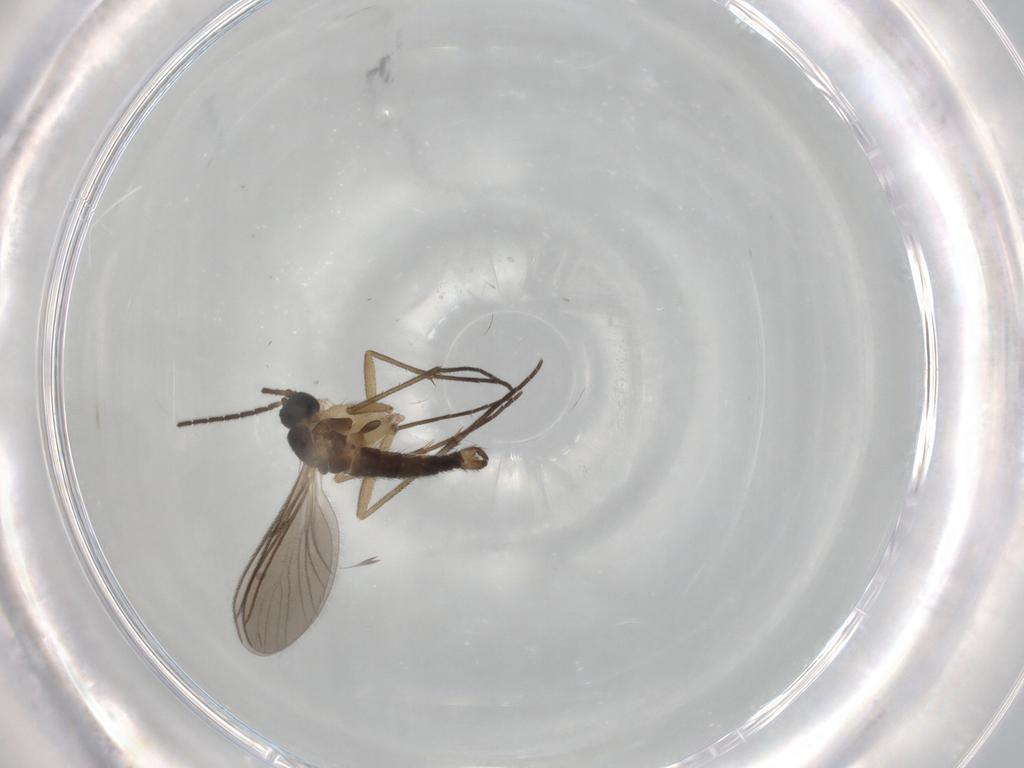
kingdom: Animalia
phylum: Arthropoda
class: Insecta
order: Diptera
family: Sciaridae
